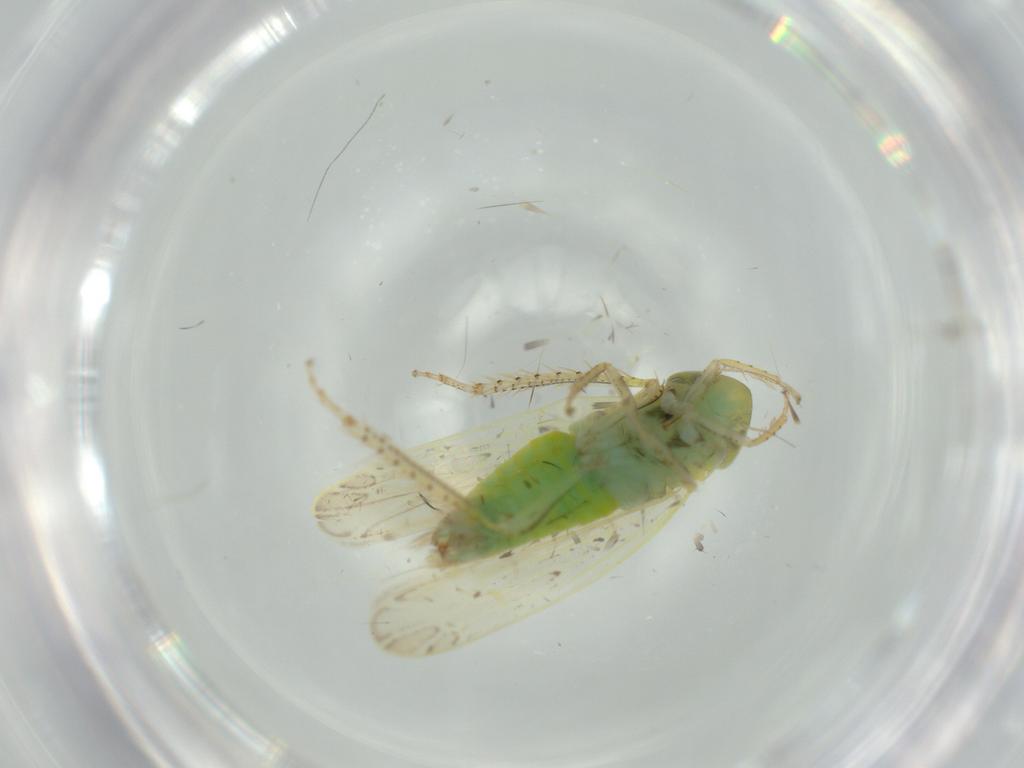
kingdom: Animalia
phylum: Arthropoda
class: Insecta
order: Hemiptera
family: Cicadellidae
